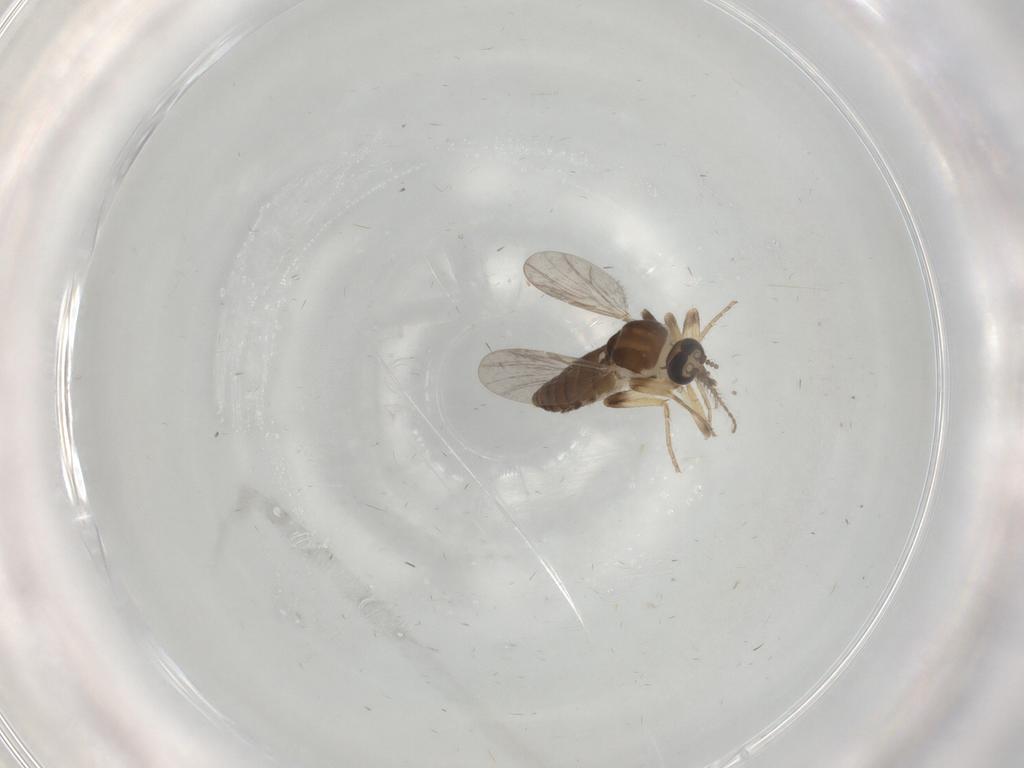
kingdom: Animalia
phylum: Arthropoda
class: Insecta
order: Diptera
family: Ceratopogonidae
